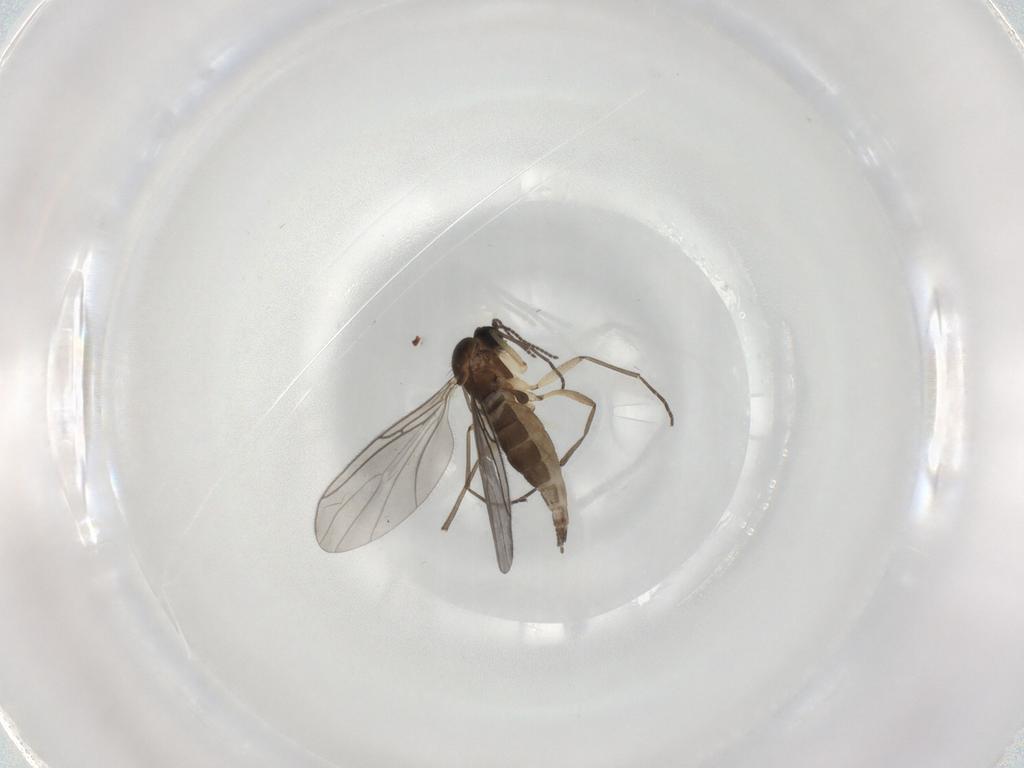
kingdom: Animalia
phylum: Arthropoda
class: Insecta
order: Diptera
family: Sciaridae
